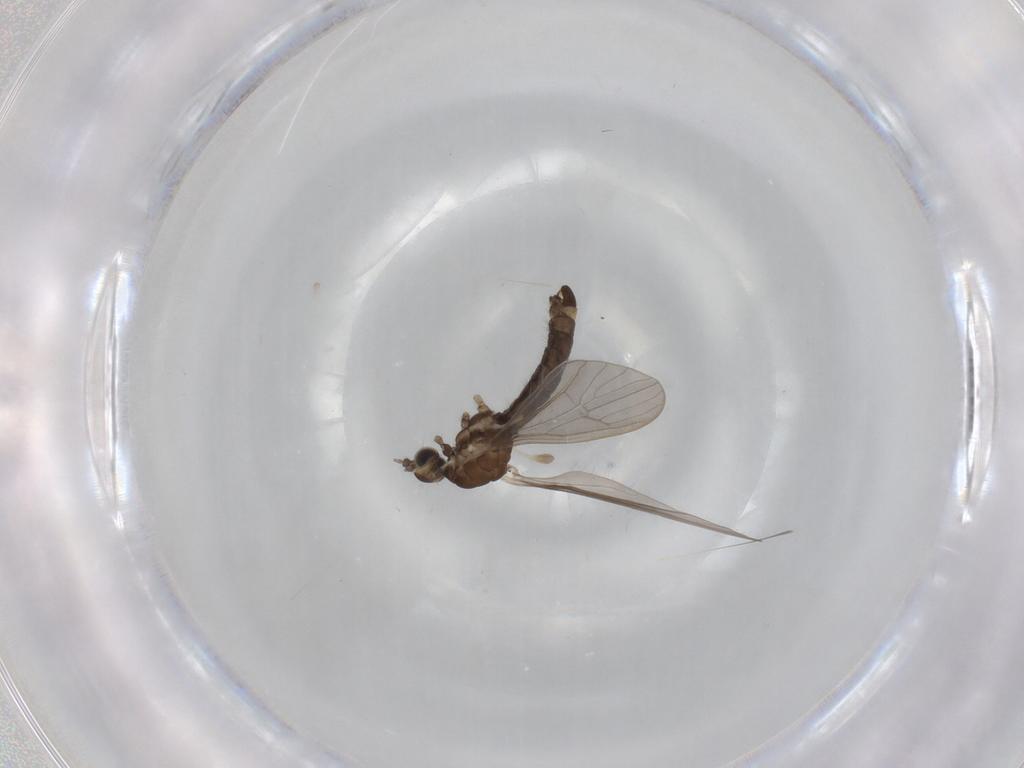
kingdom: Animalia
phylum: Arthropoda
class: Insecta
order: Diptera
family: Limoniidae
